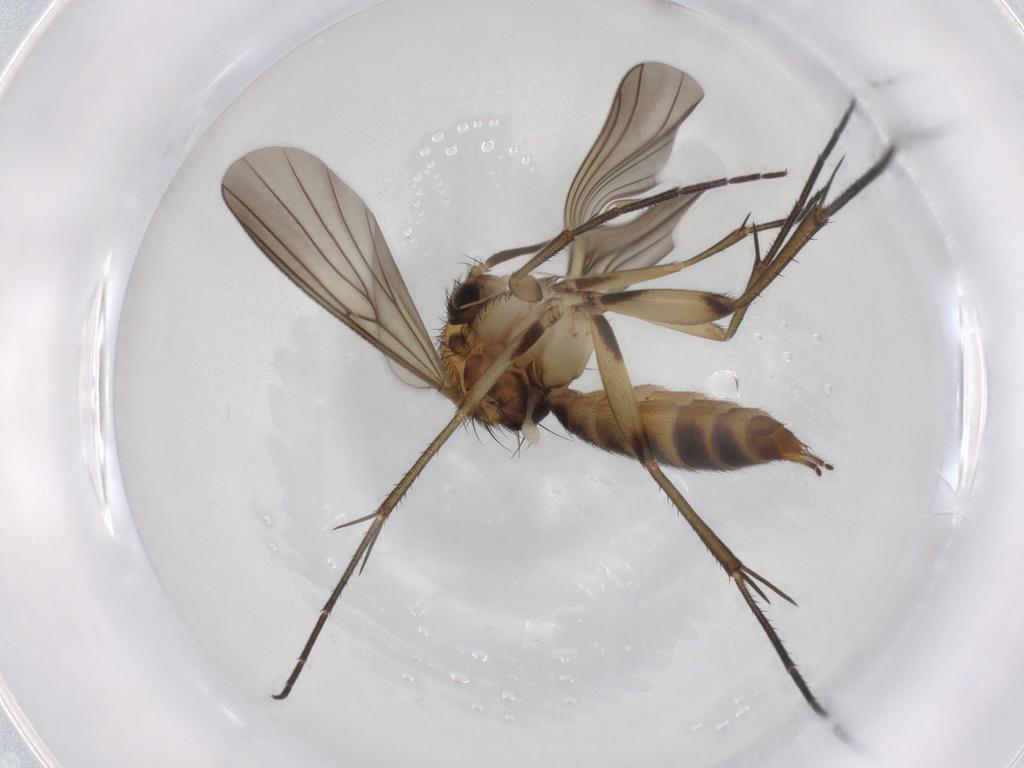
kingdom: Animalia
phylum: Arthropoda
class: Insecta
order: Diptera
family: Mycetophilidae
